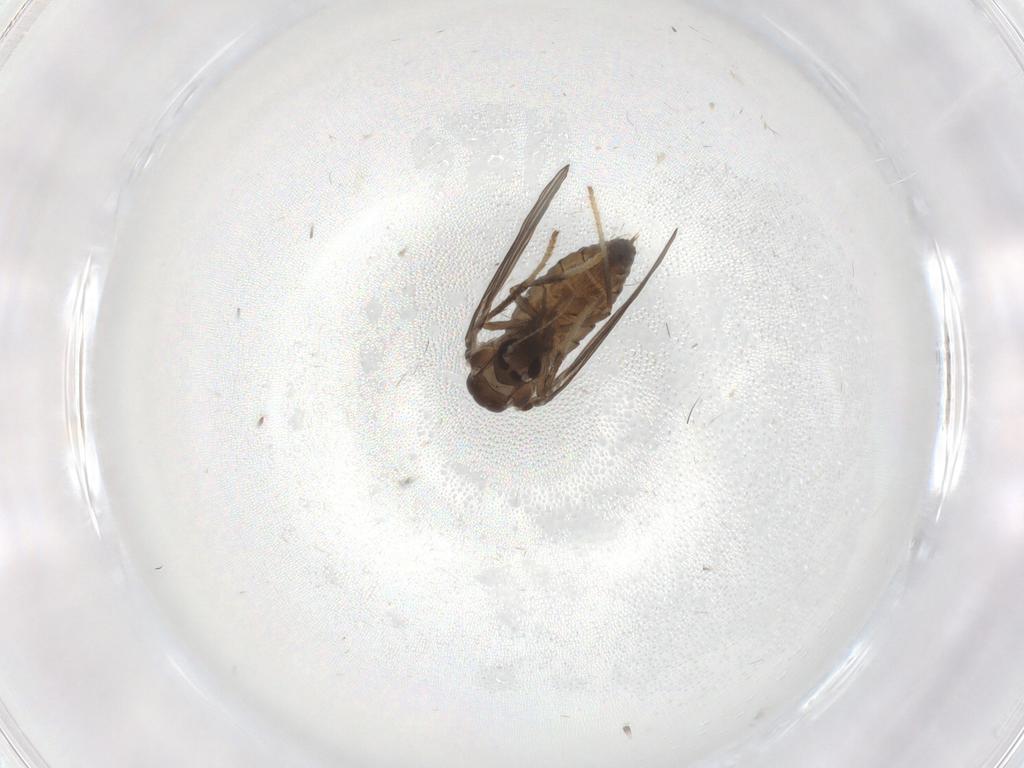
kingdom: Animalia
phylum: Arthropoda
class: Insecta
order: Diptera
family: Psychodidae
